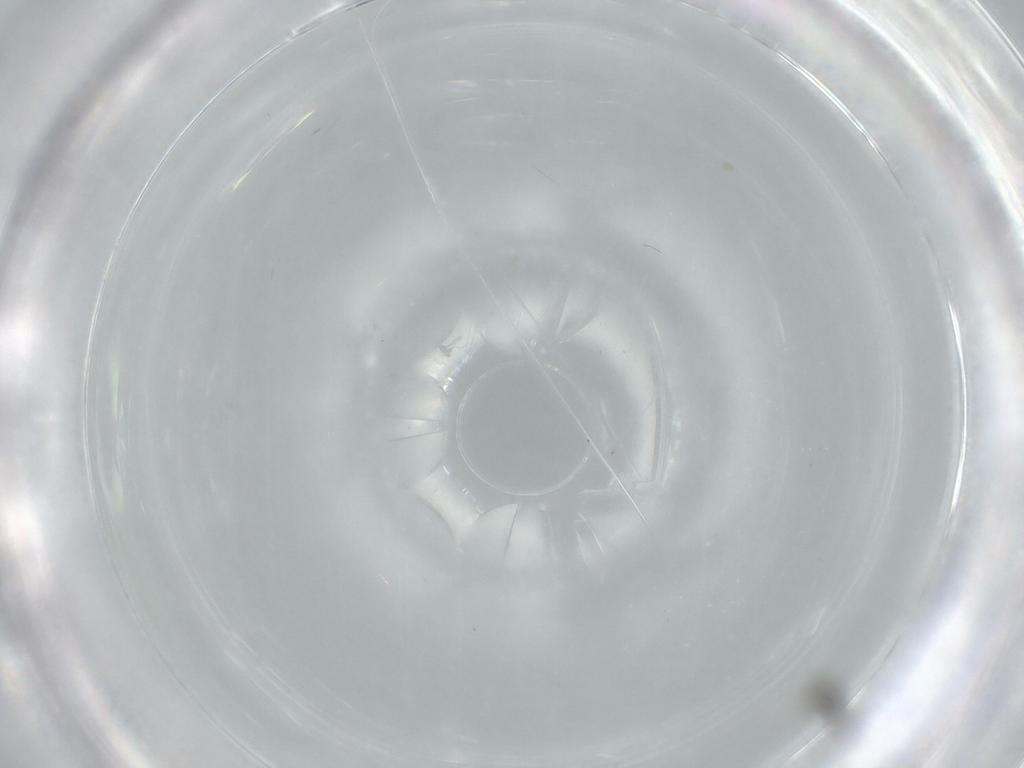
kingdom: Animalia
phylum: Arthropoda
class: Insecta
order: Diptera
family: Cecidomyiidae
